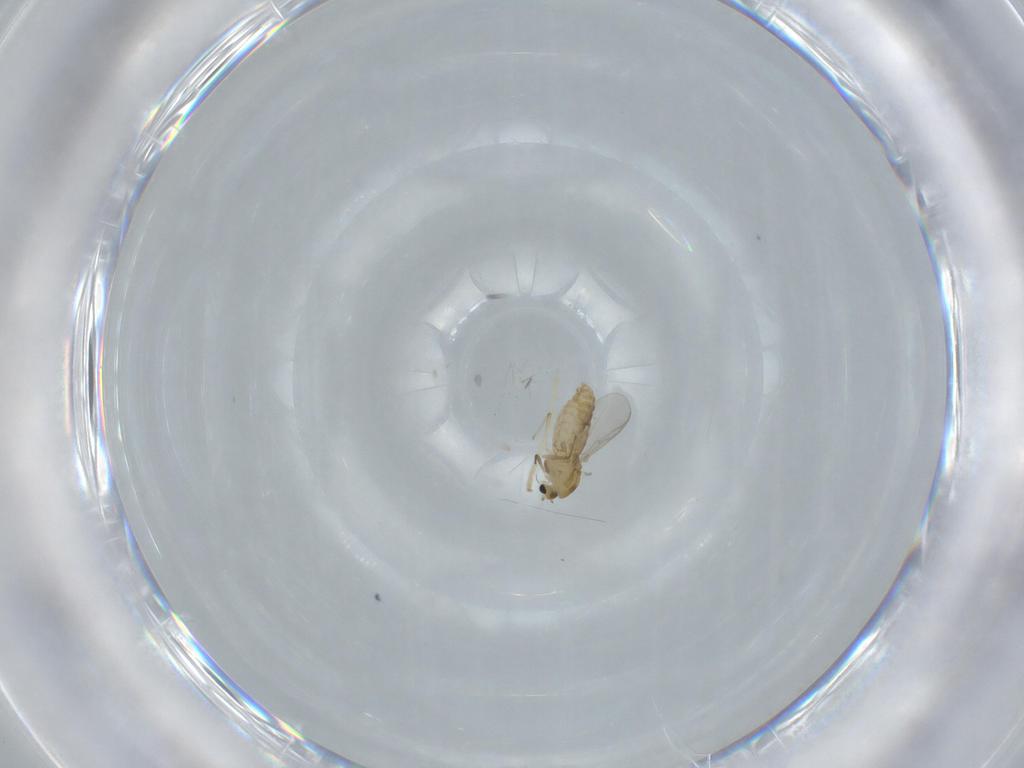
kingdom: Animalia
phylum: Arthropoda
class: Insecta
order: Diptera
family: Chironomidae
